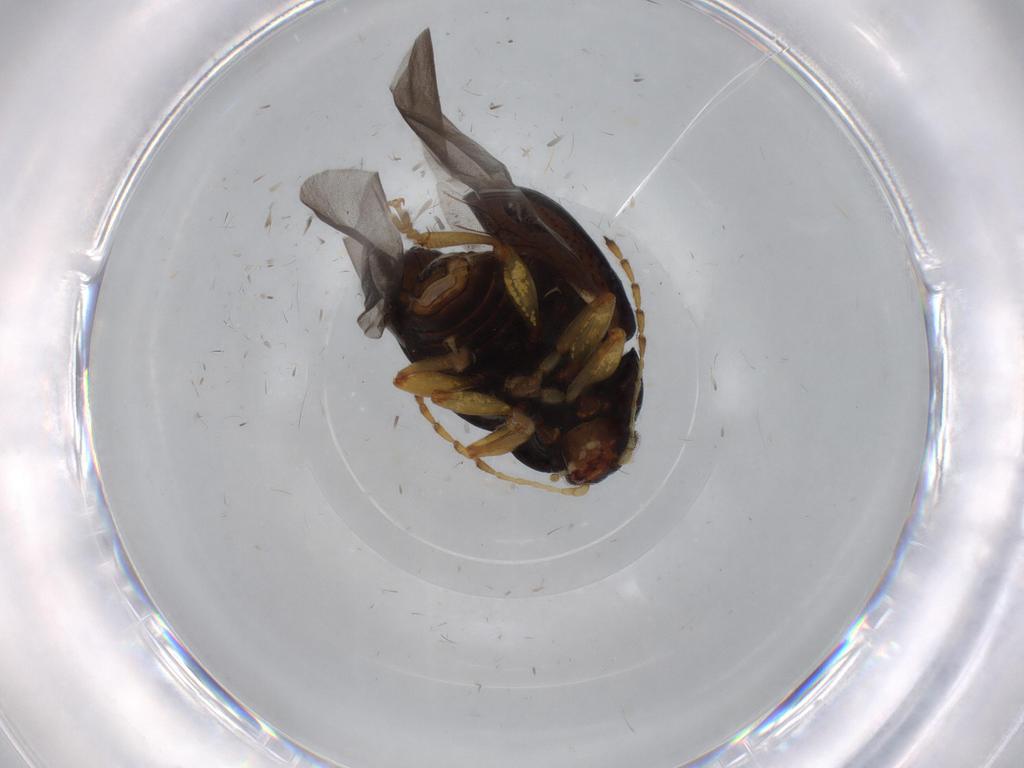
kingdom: Animalia
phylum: Arthropoda
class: Insecta
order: Coleoptera
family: Chrysomelidae
